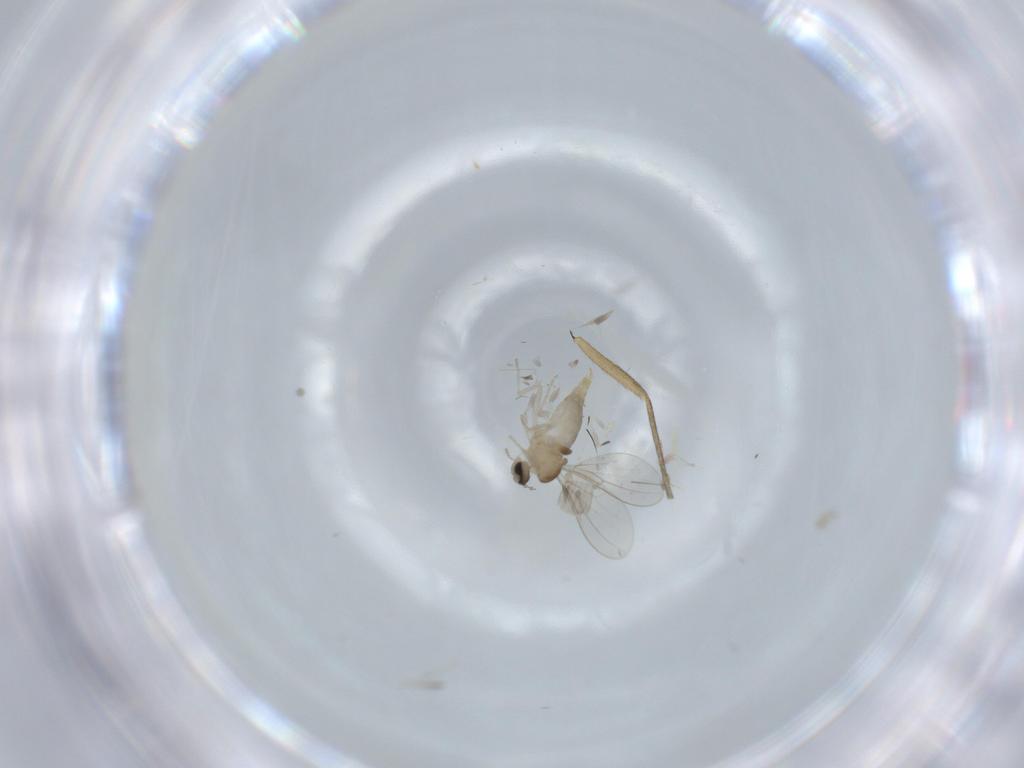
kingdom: Animalia
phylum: Arthropoda
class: Insecta
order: Diptera
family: Cecidomyiidae
